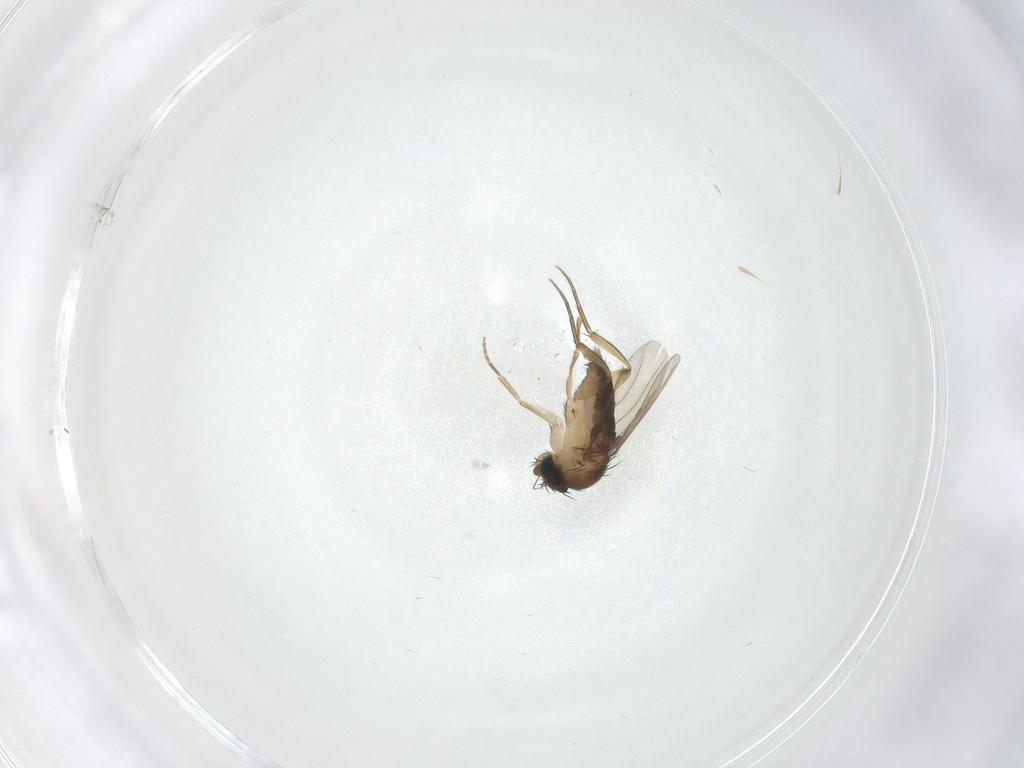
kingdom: Animalia
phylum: Arthropoda
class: Insecta
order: Diptera
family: Phoridae
